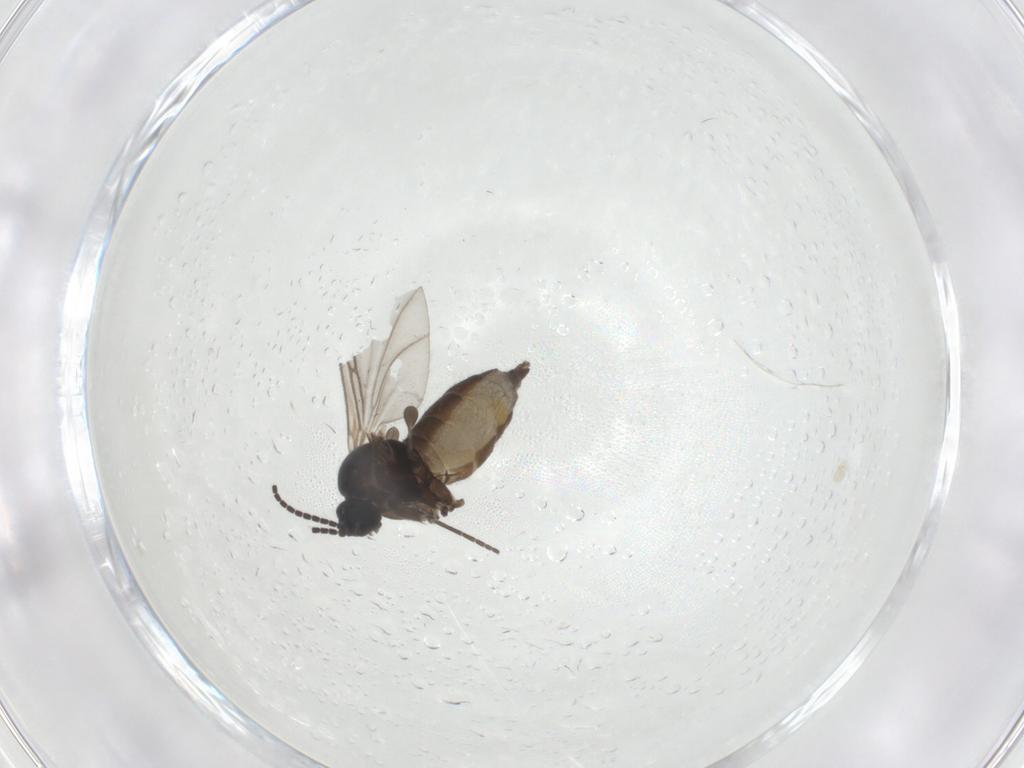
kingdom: Animalia
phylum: Arthropoda
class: Insecta
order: Diptera
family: Sciaridae
